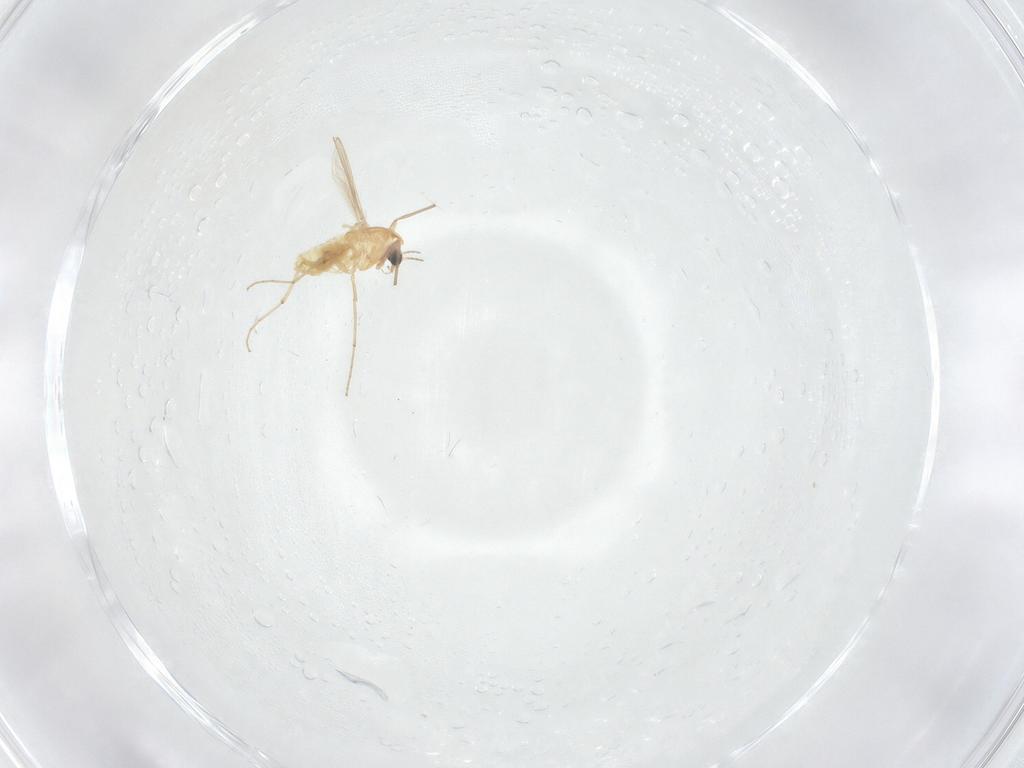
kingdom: Animalia
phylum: Arthropoda
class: Insecta
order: Diptera
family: Chironomidae
